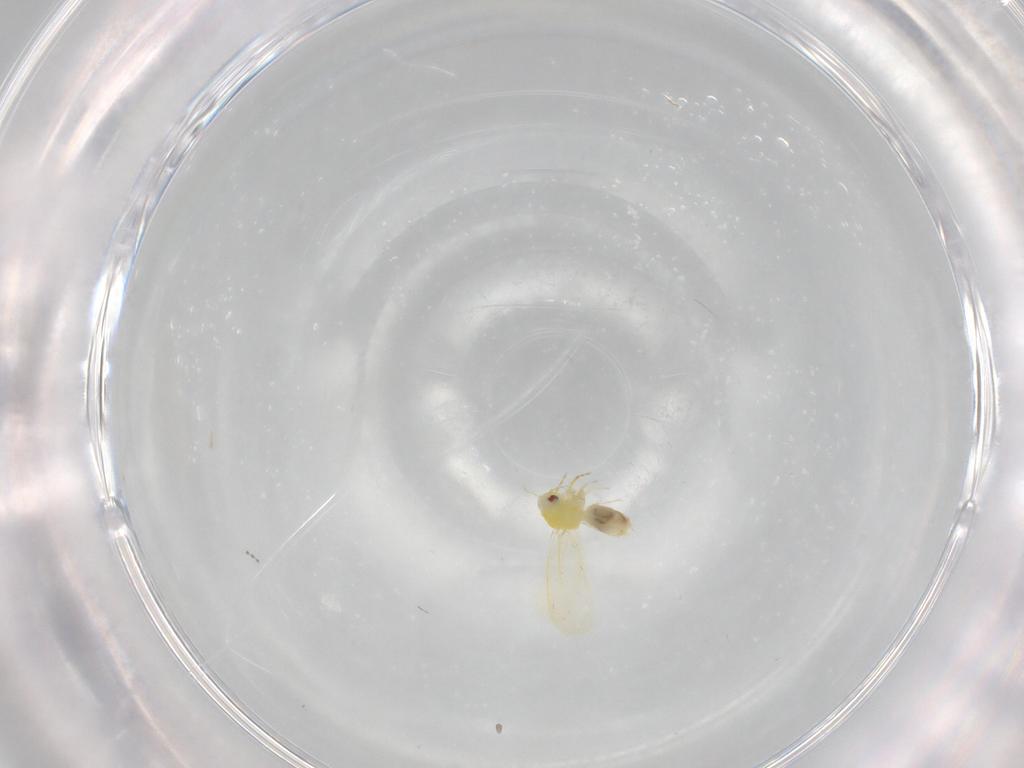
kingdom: Animalia
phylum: Arthropoda
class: Insecta
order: Hemiptera
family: Aleyrodidae
